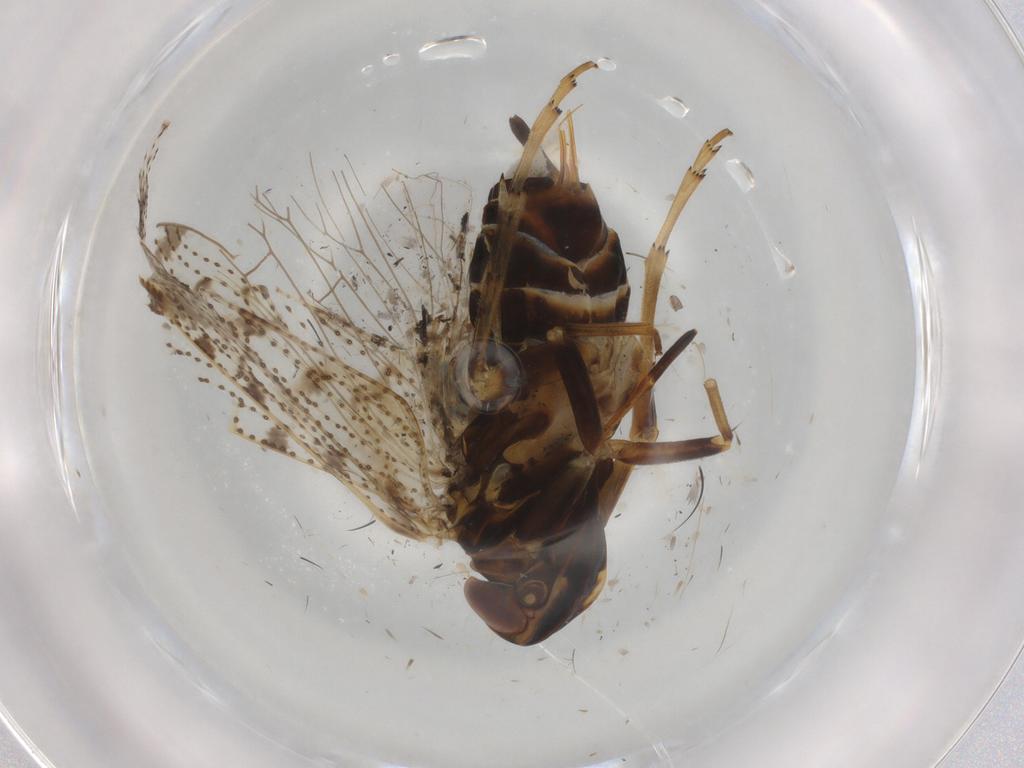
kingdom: Animalia
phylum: Arthropoda
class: Insecta
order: Hemiptera
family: Cixiidae
